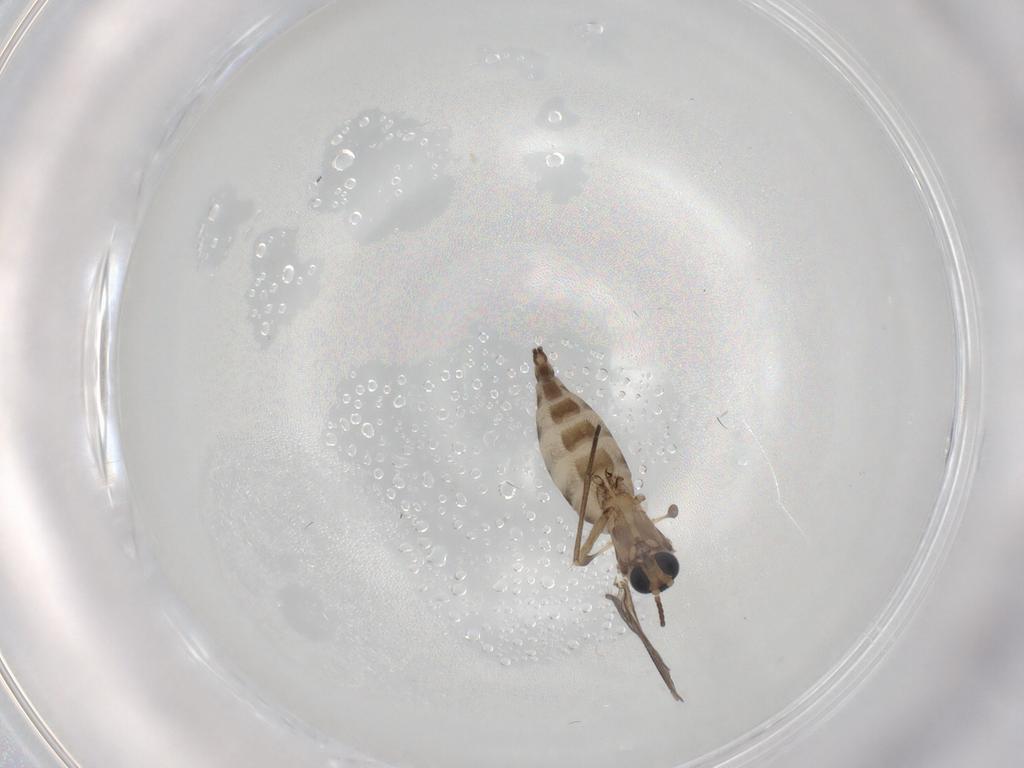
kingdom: Animalia
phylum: Arthropoda
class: Insecta
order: Diptera
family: Sciaridae
